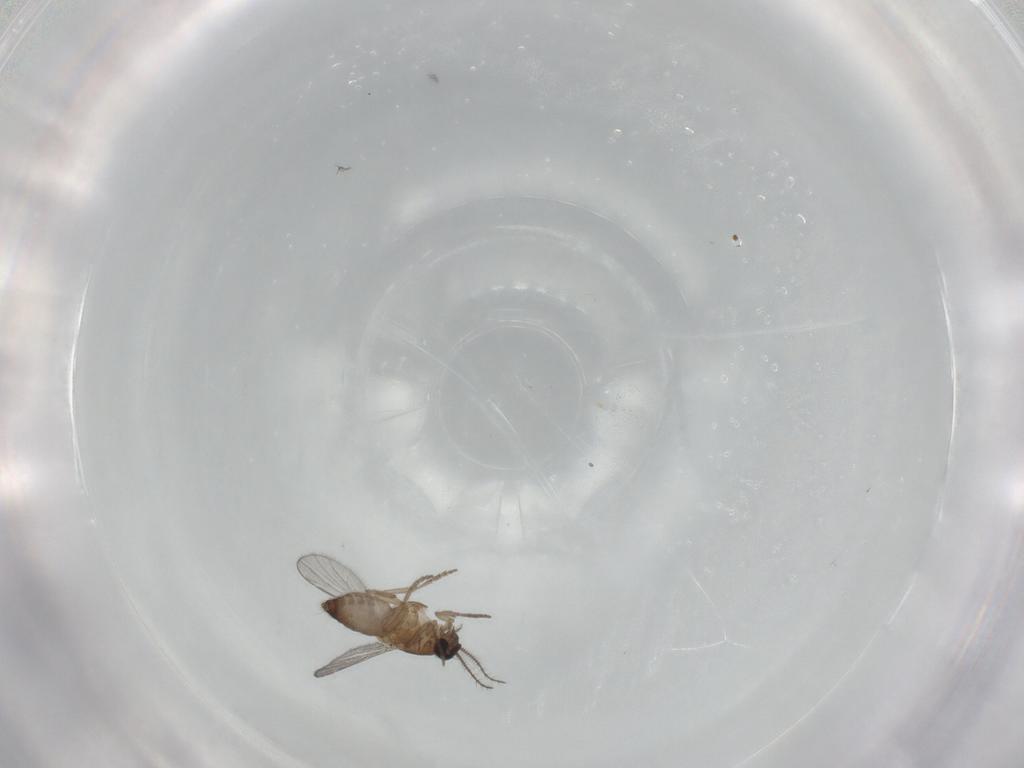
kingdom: Animalia
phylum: Arthropoda
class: Insecta
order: Diptera
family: Chironomidae
